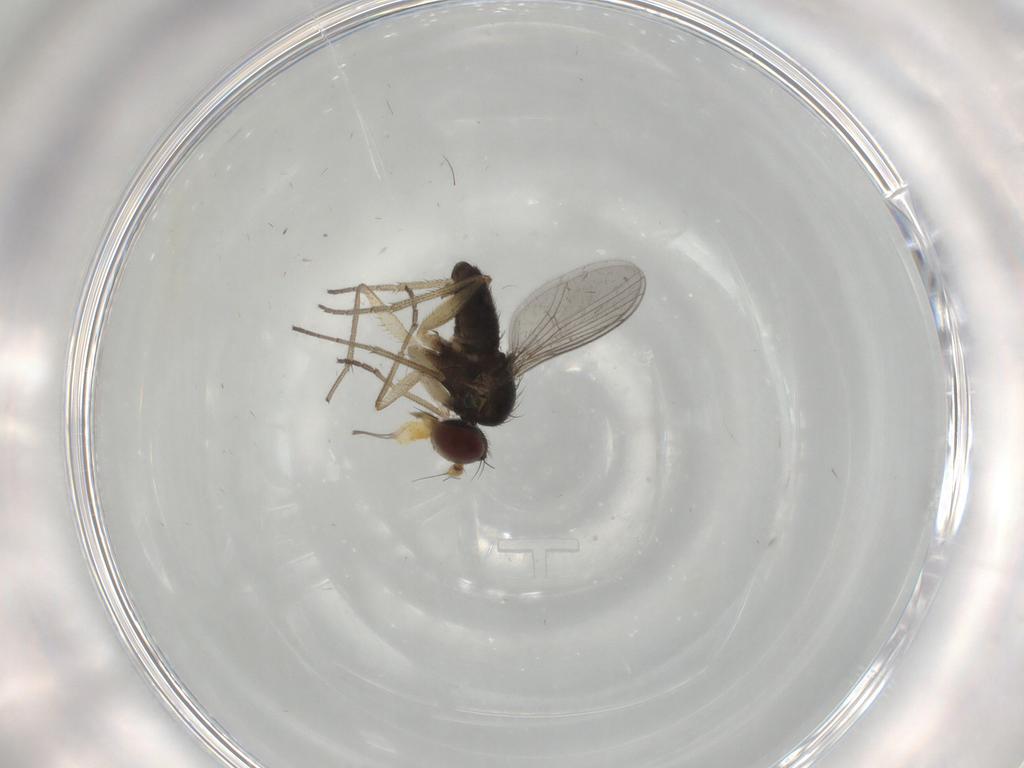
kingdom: Animalia
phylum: Arthropoda
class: Insecta
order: Diptera
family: Dolichopodidae
